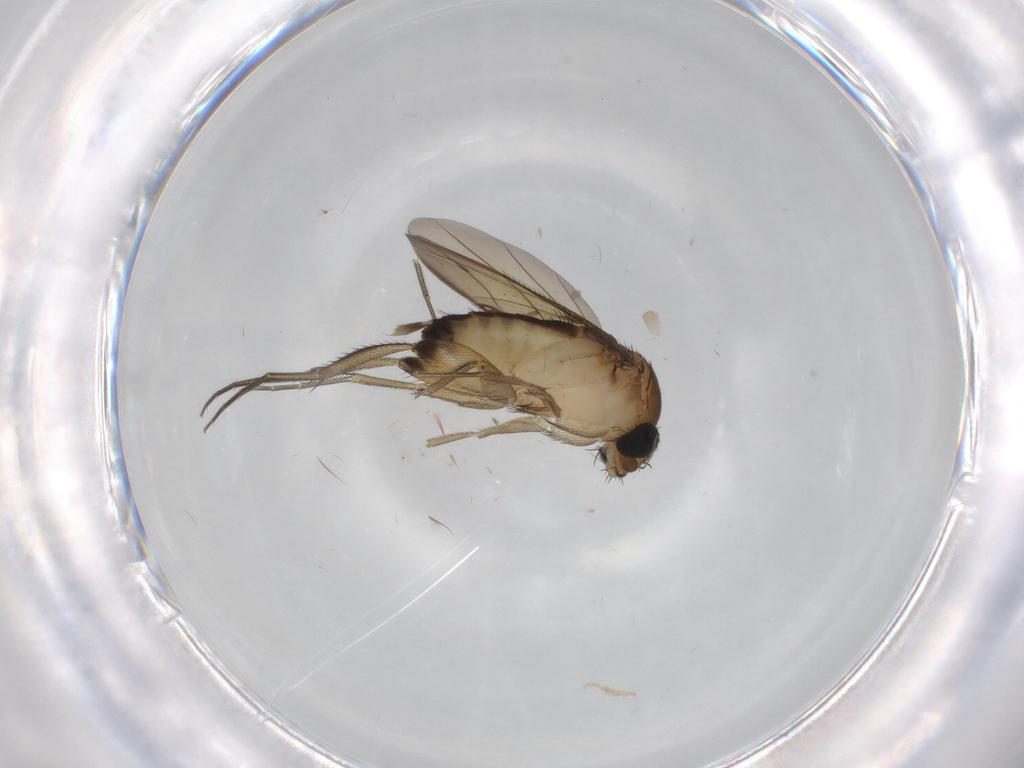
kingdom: Animalia
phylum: Arthropoda
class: Insecta
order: Diptera
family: Phoridae
